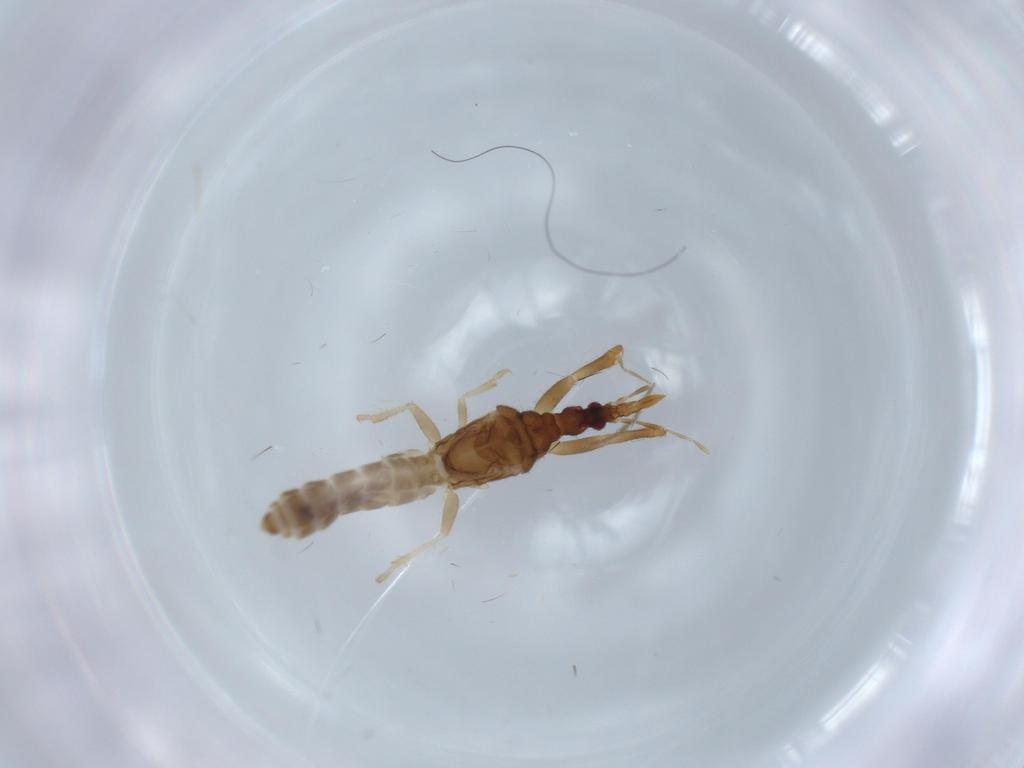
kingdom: Animalia
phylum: Arthropoda
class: Insecta
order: Hemiptera
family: Enicocephalidae
